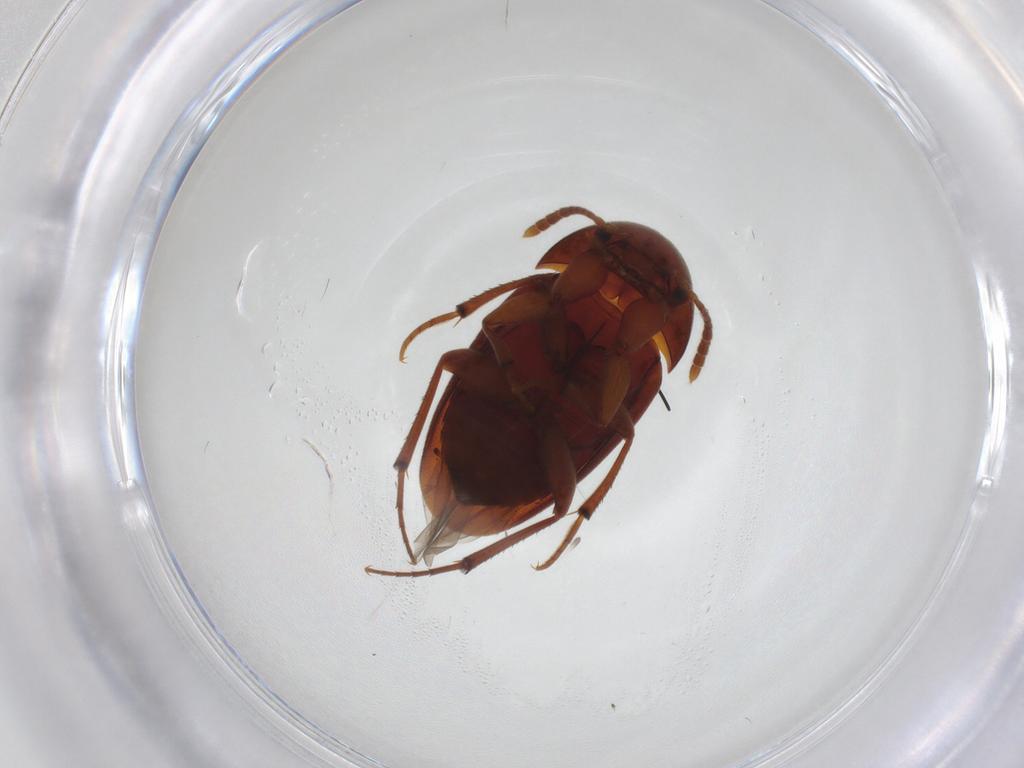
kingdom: Animalia
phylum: Arthropoda
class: Insecta
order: Coleoptera
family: Leiodidae
